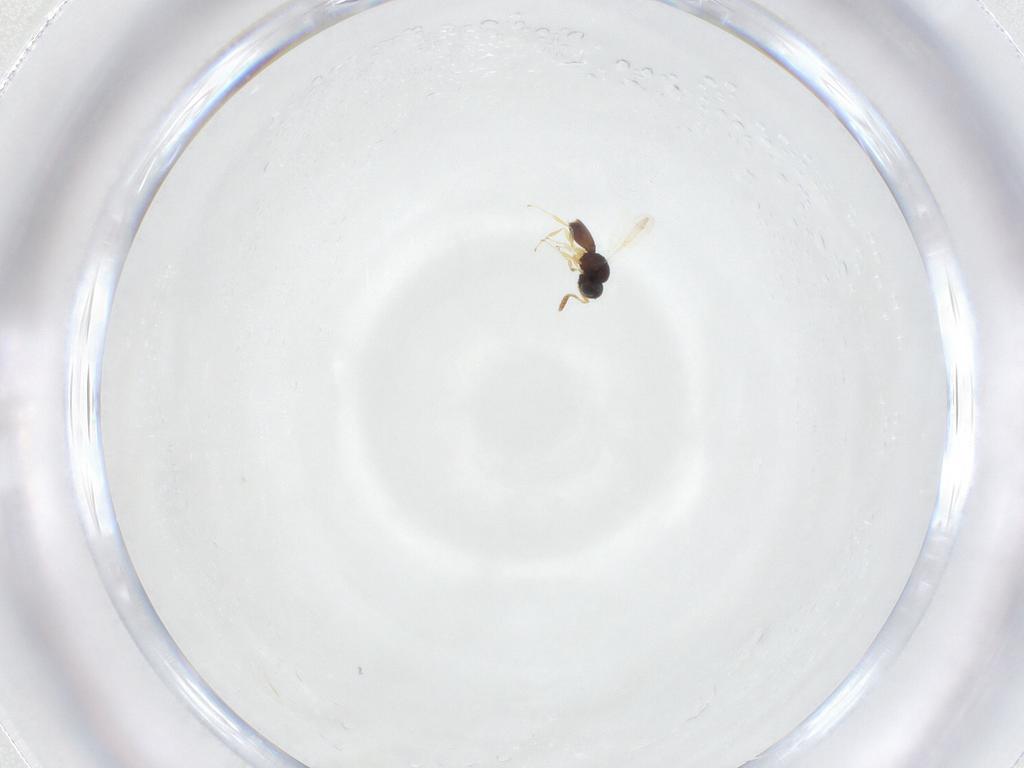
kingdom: Animalia
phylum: Arthropoda
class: Insecta
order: Hymenoptera
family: Scelionidae
